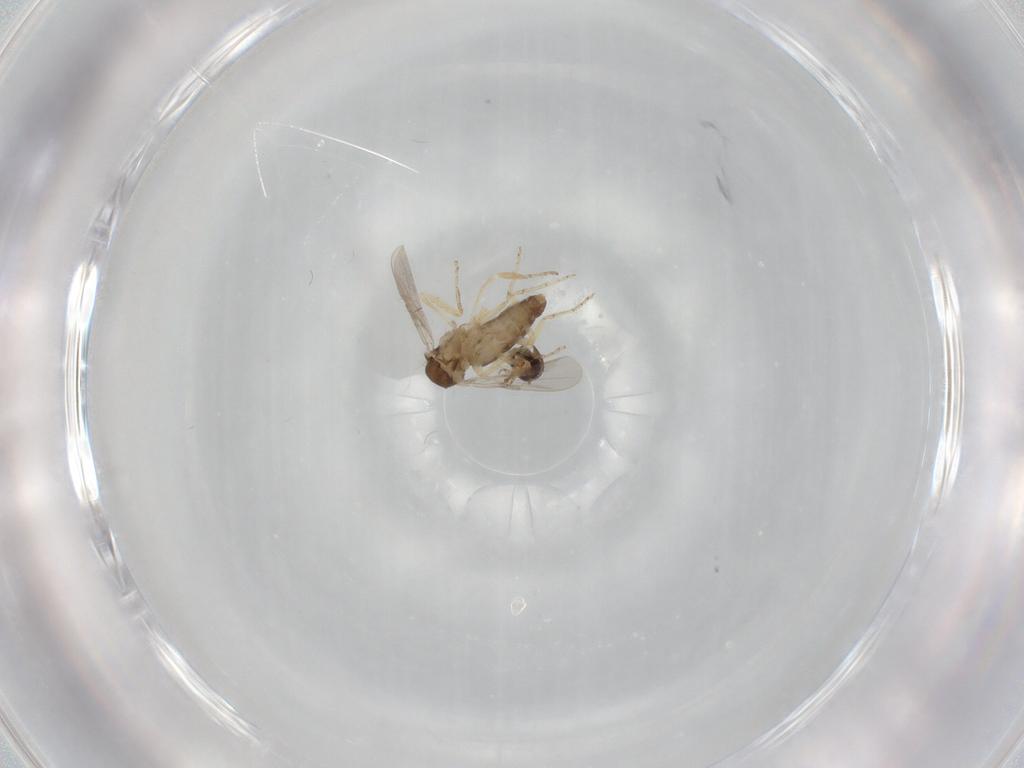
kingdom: Animalia
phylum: Arthropoda
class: Insecta
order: Diptera
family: Ceratopogonidae
